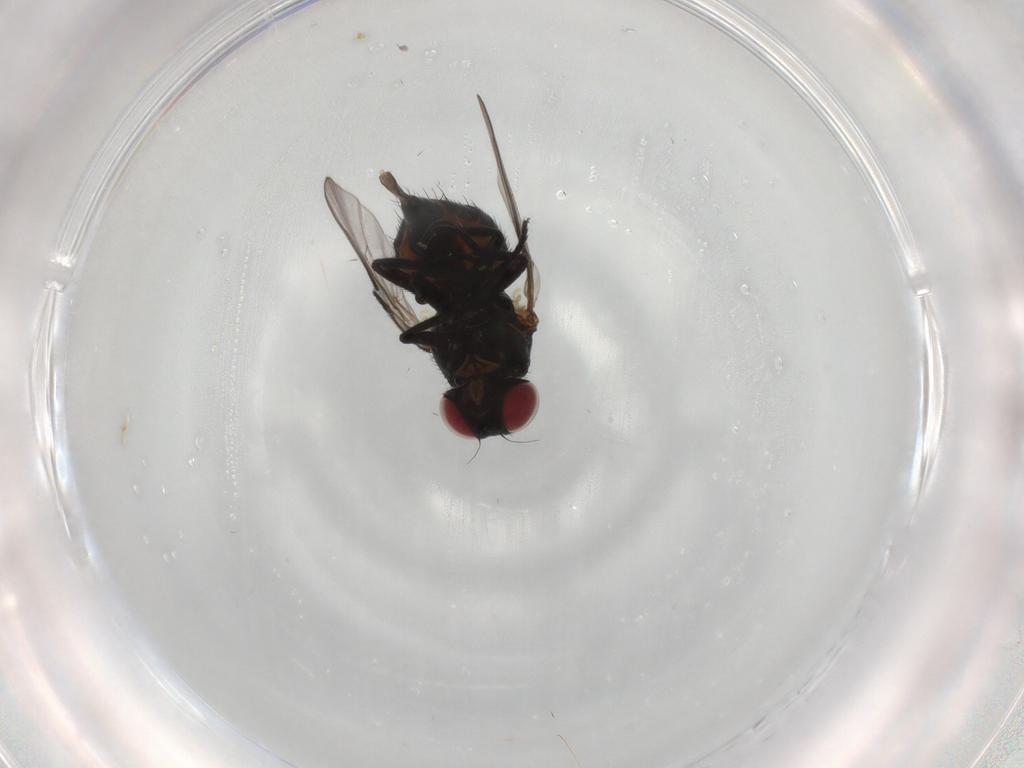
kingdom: Animalia
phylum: Arthropoda
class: Insecta
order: Diptera
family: Agromyzidae
